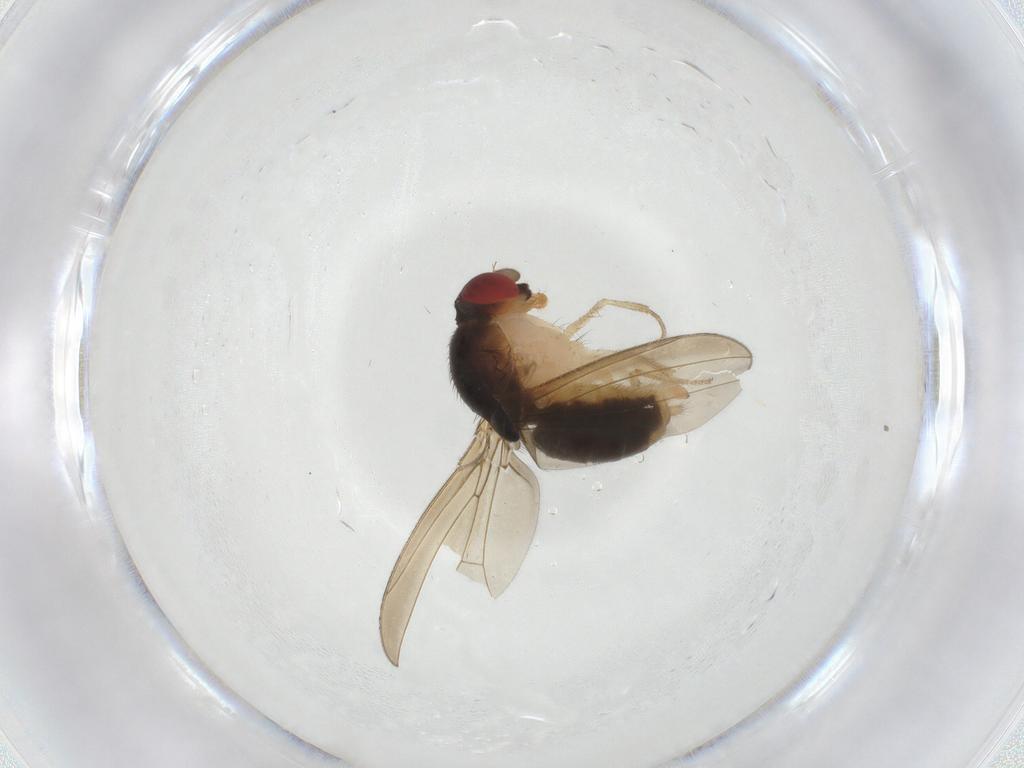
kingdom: Animalia
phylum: Arthropoda
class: Insecta
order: Diptera
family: Drosophilidae
